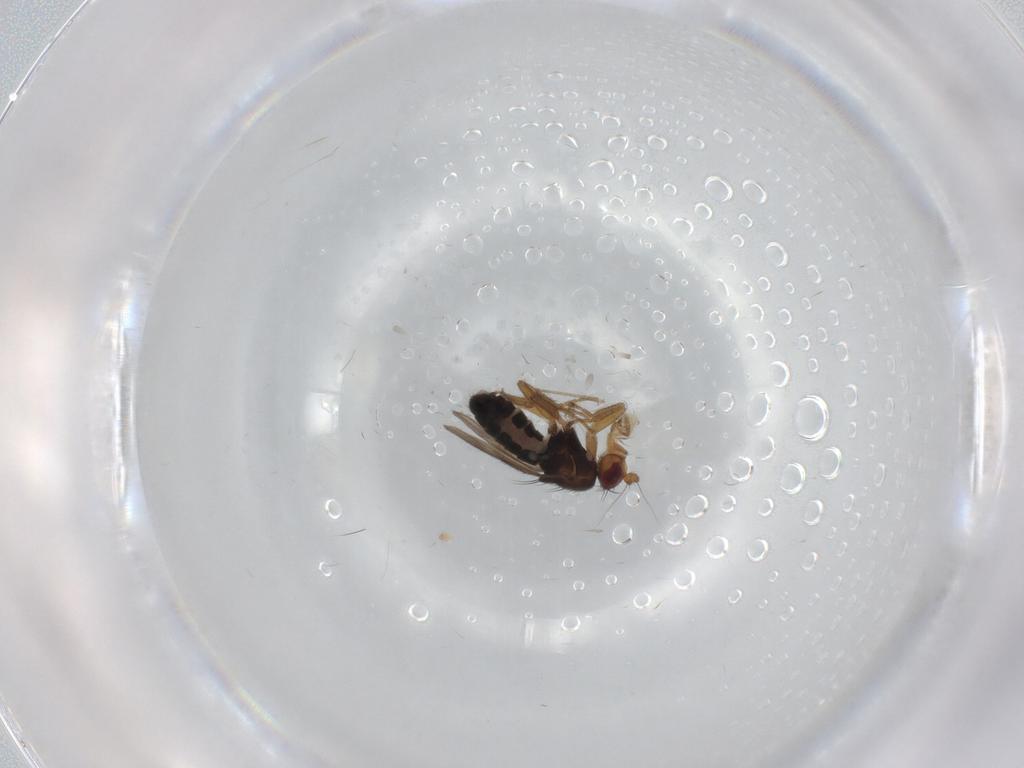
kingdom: Animalia
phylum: Arthropoda
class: Insecta
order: Diptera
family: Sphaeroceridae
